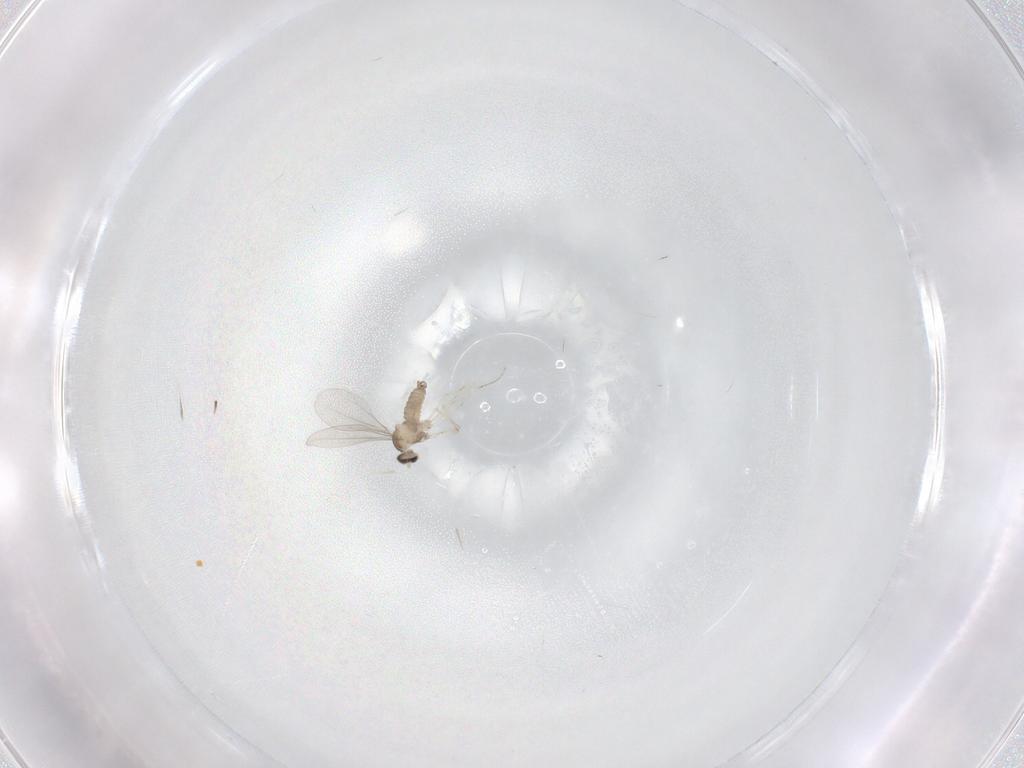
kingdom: Animalia
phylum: Arthropoda
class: Insecta
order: Diptera
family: Cecidomyiidae
